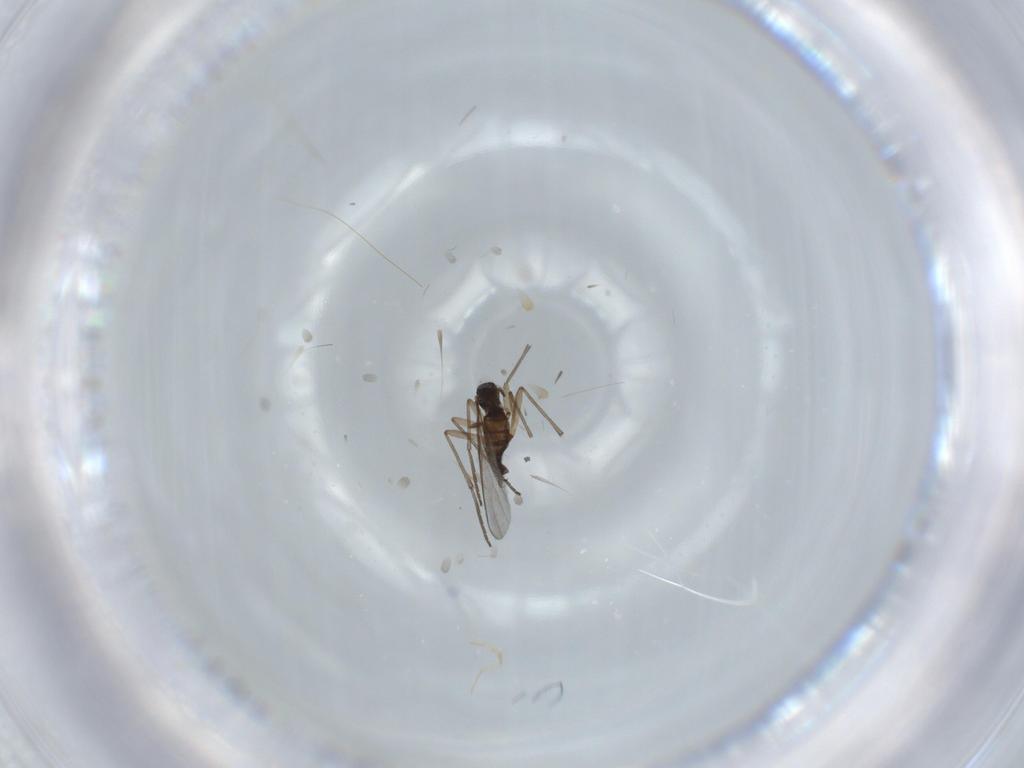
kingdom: Animalia
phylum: Arthropoda
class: Insecta
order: Diptera
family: Sciaridae
